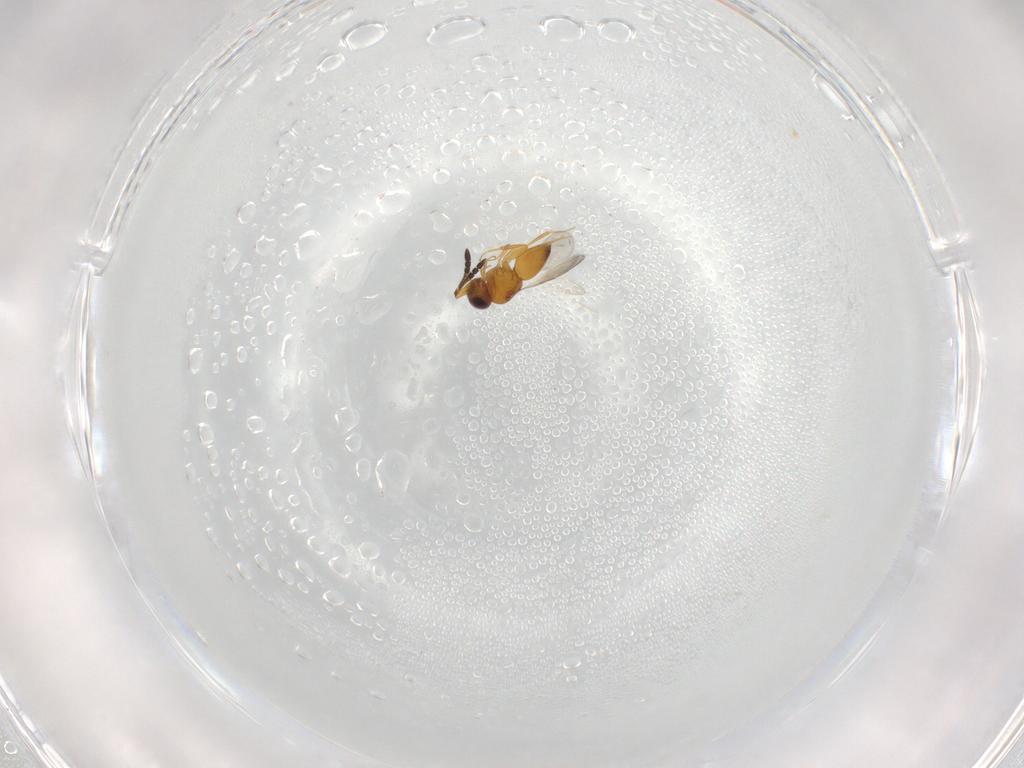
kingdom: Animalia
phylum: Arthropoda
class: Insecta
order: Hymenoptera
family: Ceraphronidae
